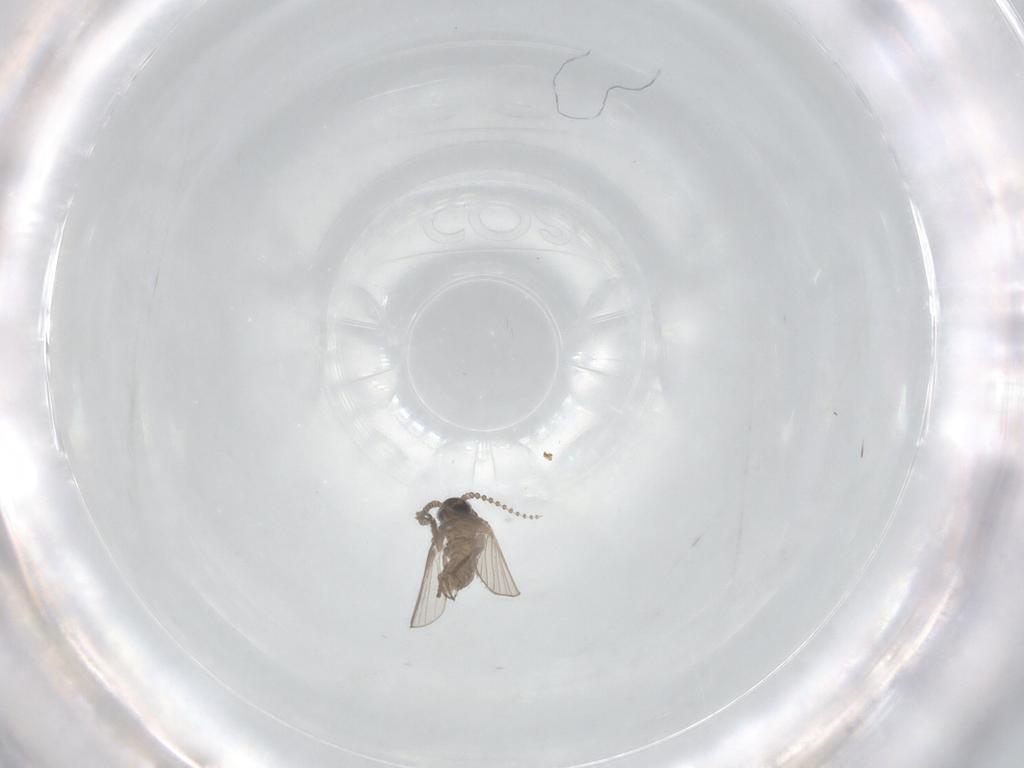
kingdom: Animalia
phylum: Arthropoda
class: Insecta
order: Diptera
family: Psychodidae
